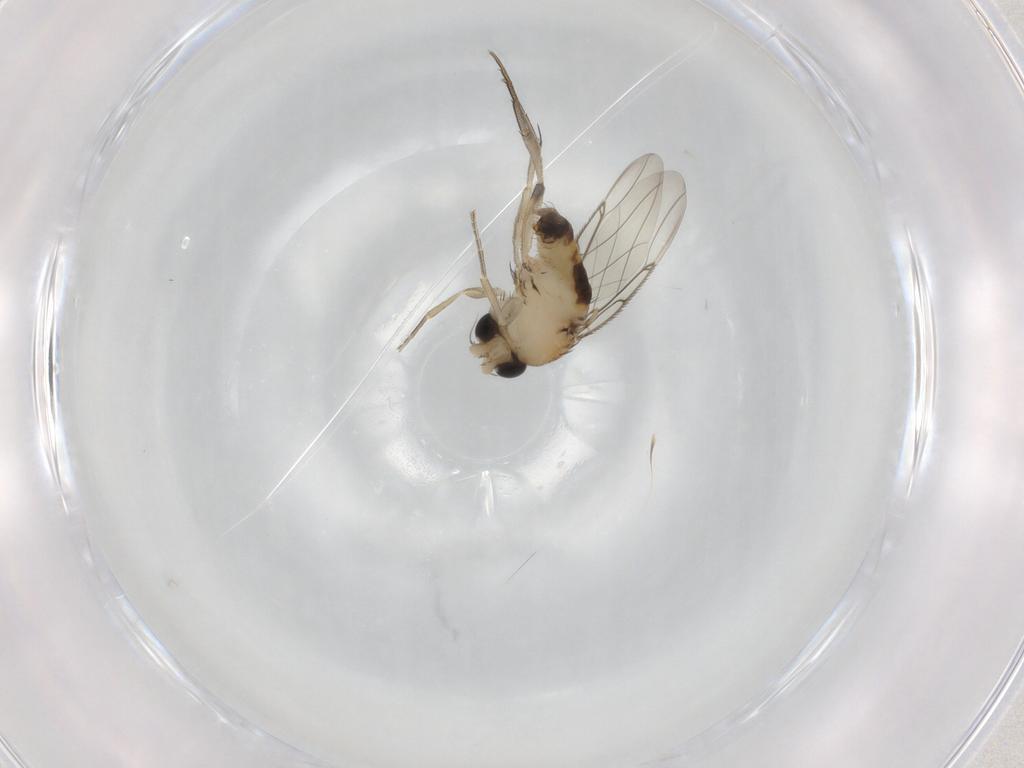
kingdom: Animalia
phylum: Arthropoda
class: Insecta
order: Diptera
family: Phoridae
